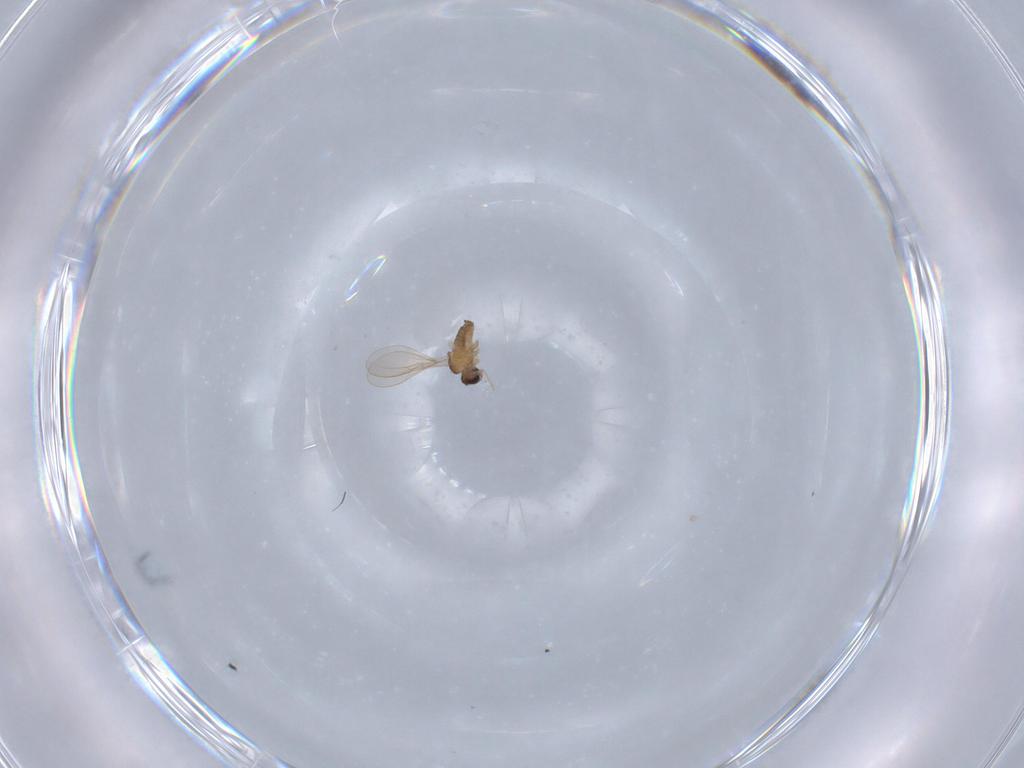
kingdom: Animalia
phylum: Arthropoda
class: Insecta
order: Diptera
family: Cecidomyiidae
